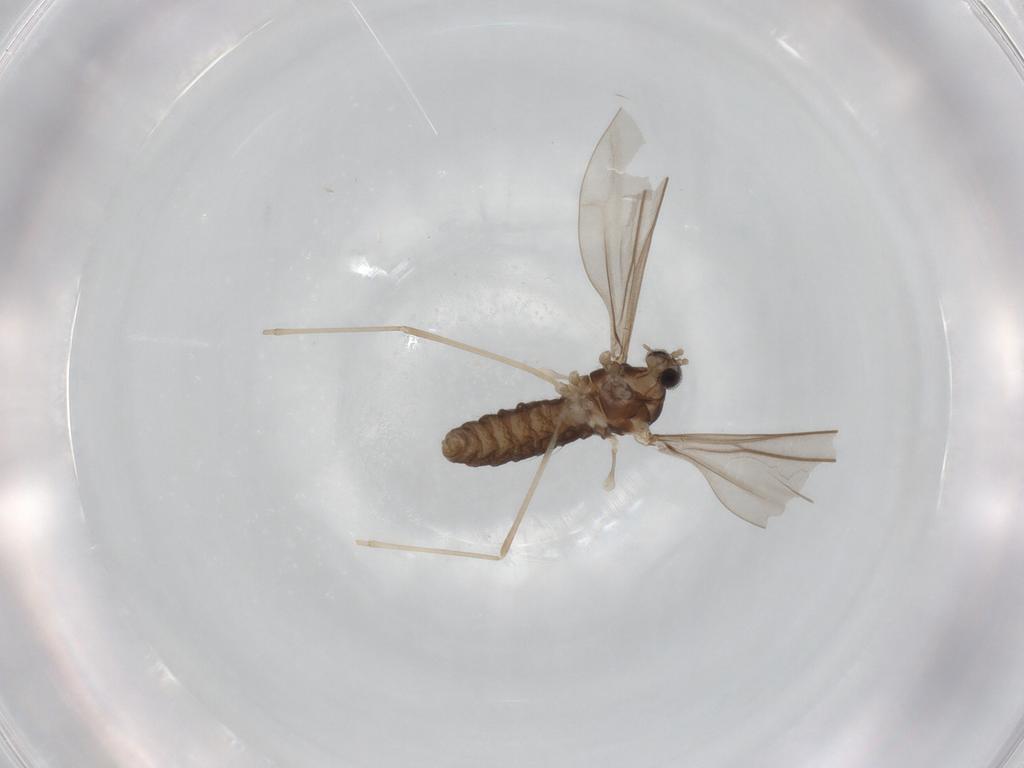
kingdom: Animalia
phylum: Arthropoda
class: Insecta
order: Diptera
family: Cecidomyiidae
